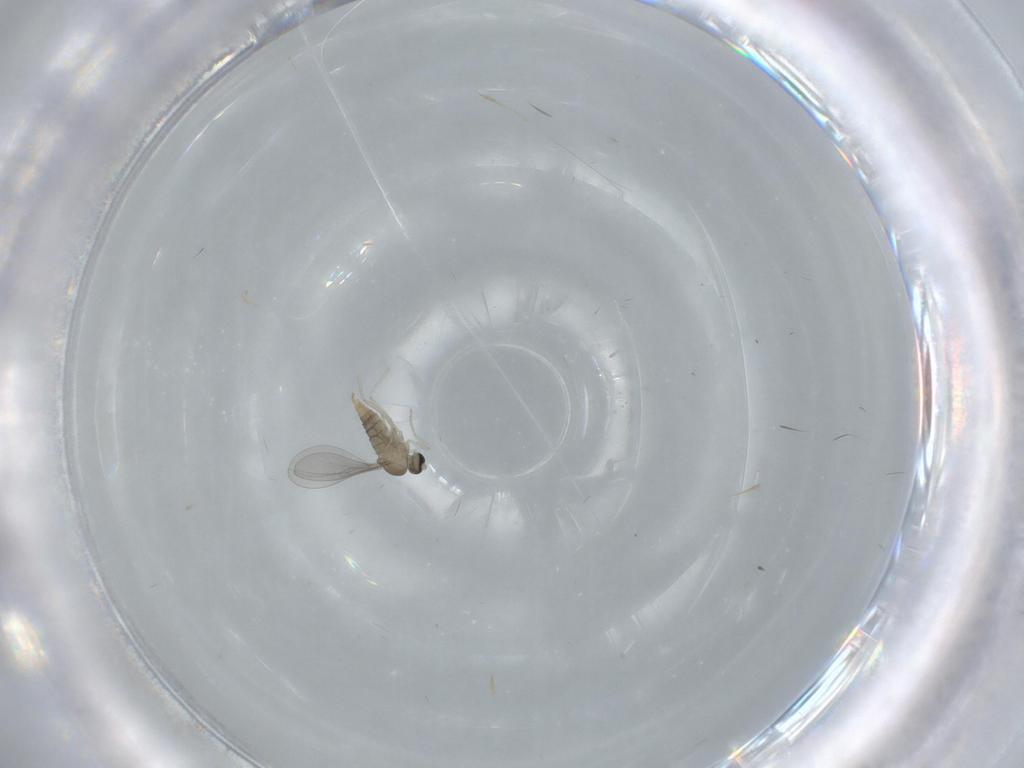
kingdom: Animalia
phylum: Arthropoda
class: Insecta
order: Diptera
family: Cecidomyiidae
